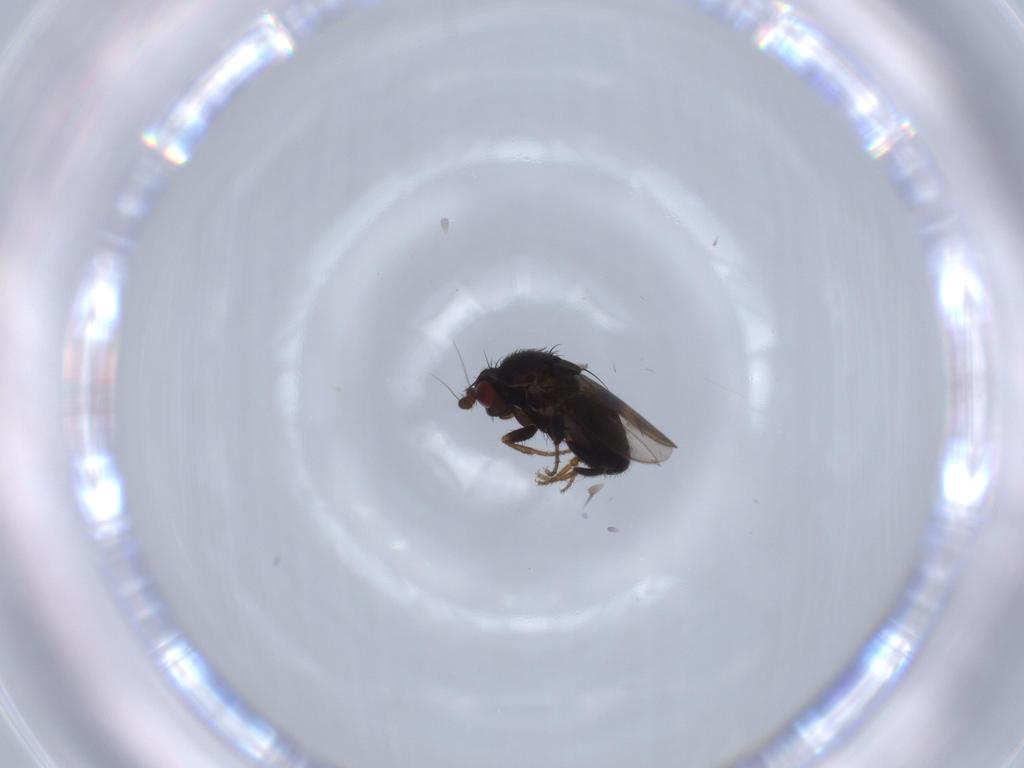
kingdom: Animalia
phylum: Arthropoda
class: Insecta
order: Diptera
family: Sphaeroceridae
